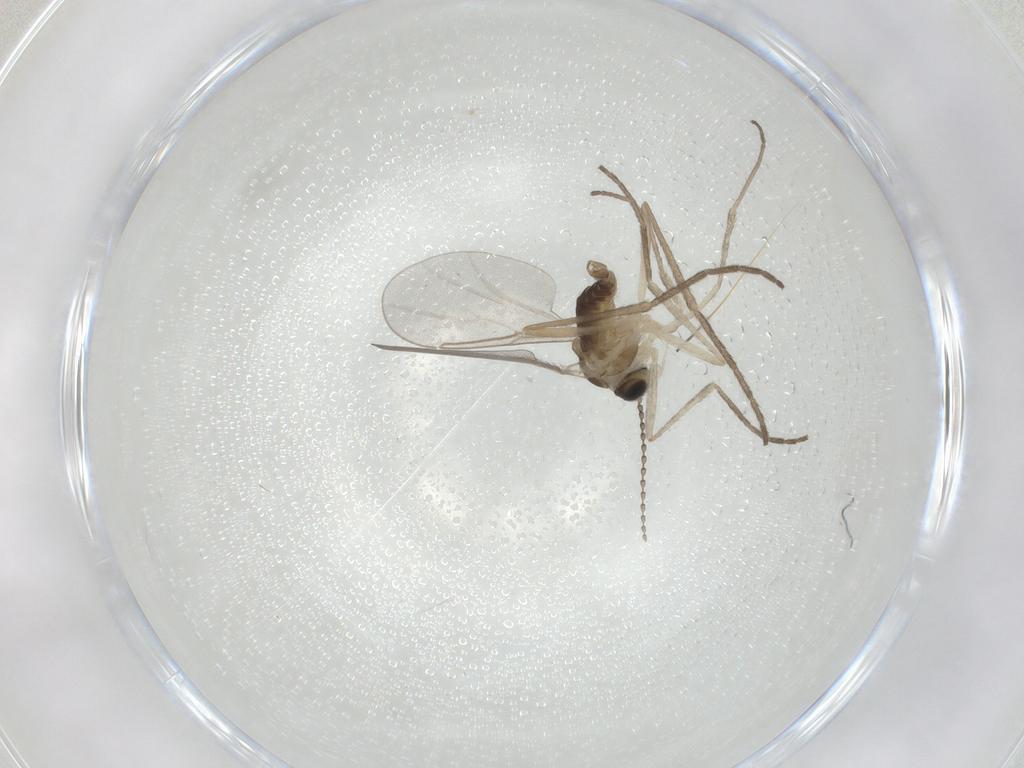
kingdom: Animalia
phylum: Arthropoda
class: Insecta
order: Diptera
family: Cecidomyiidae
